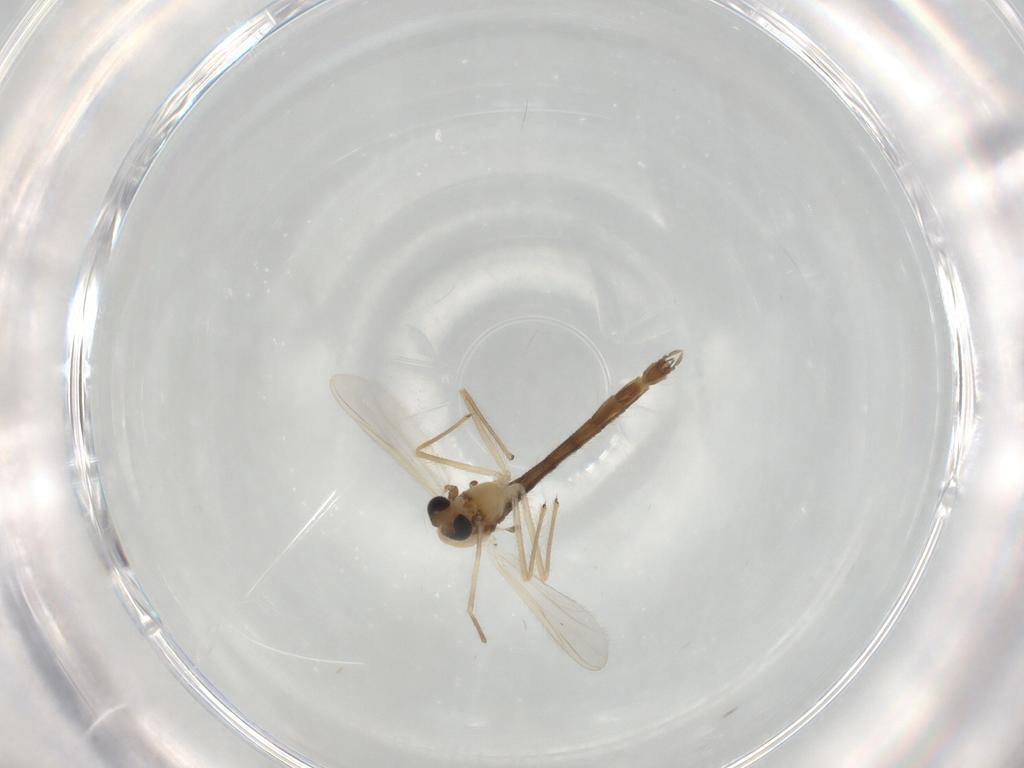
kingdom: Animalia
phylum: Arthropoda
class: Insecta
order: Diptera
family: Chironomidae
